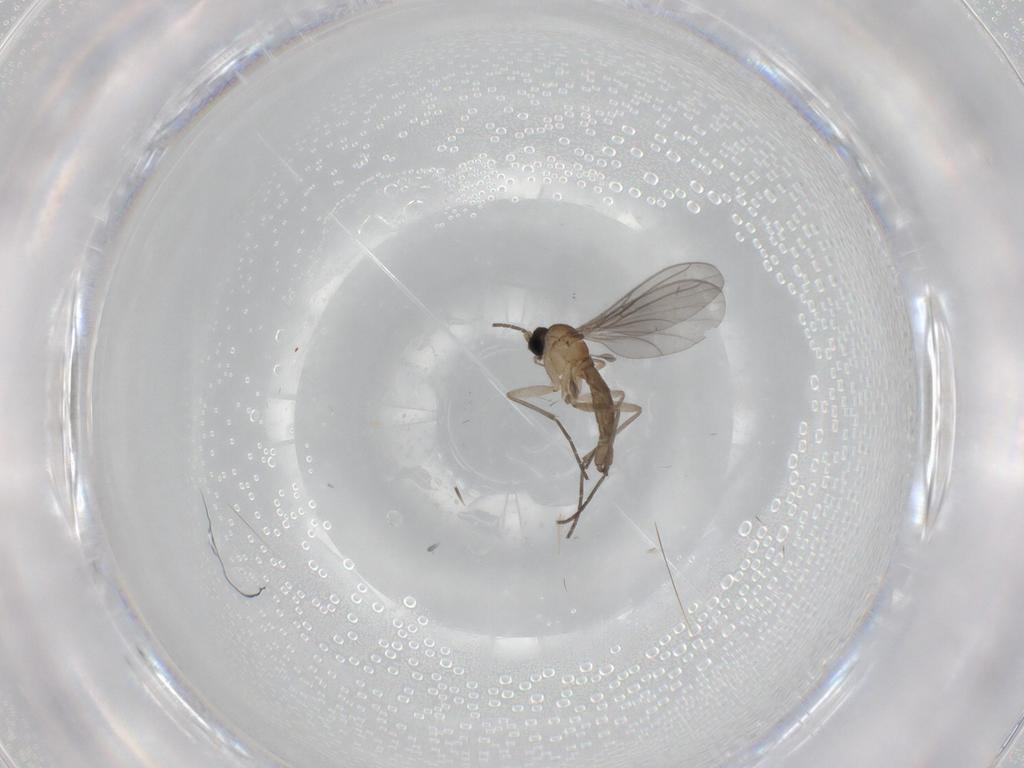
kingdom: Animalia
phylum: Arthropoda
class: Insecta
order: Diptera
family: Sciaridae
